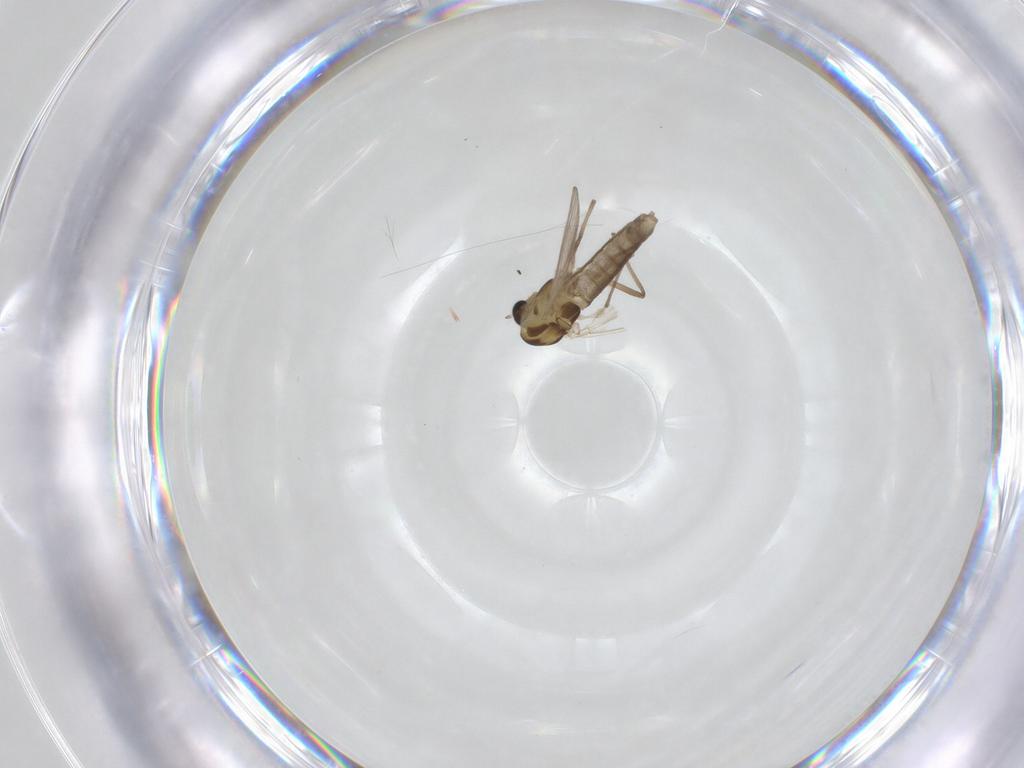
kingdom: Animalia
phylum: Arthropoda
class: Insecta
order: Diptera
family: Chironomidae
